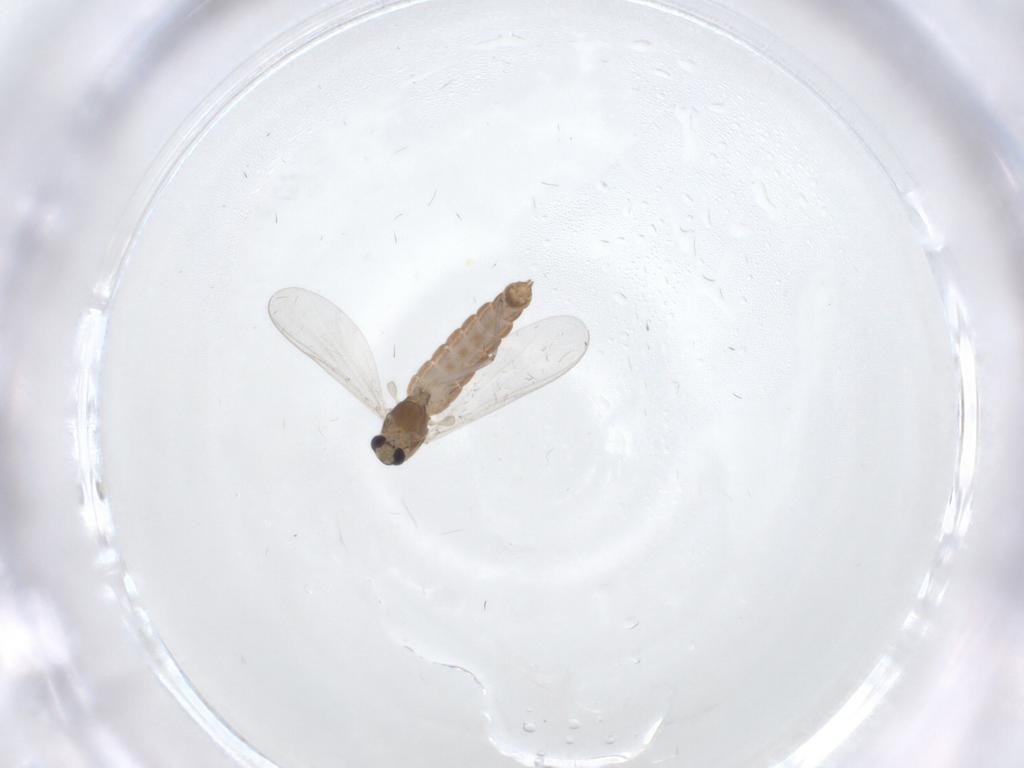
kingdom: Animalia
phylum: Arthropoda
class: Insecta
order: Diptera
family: Chironomidae
